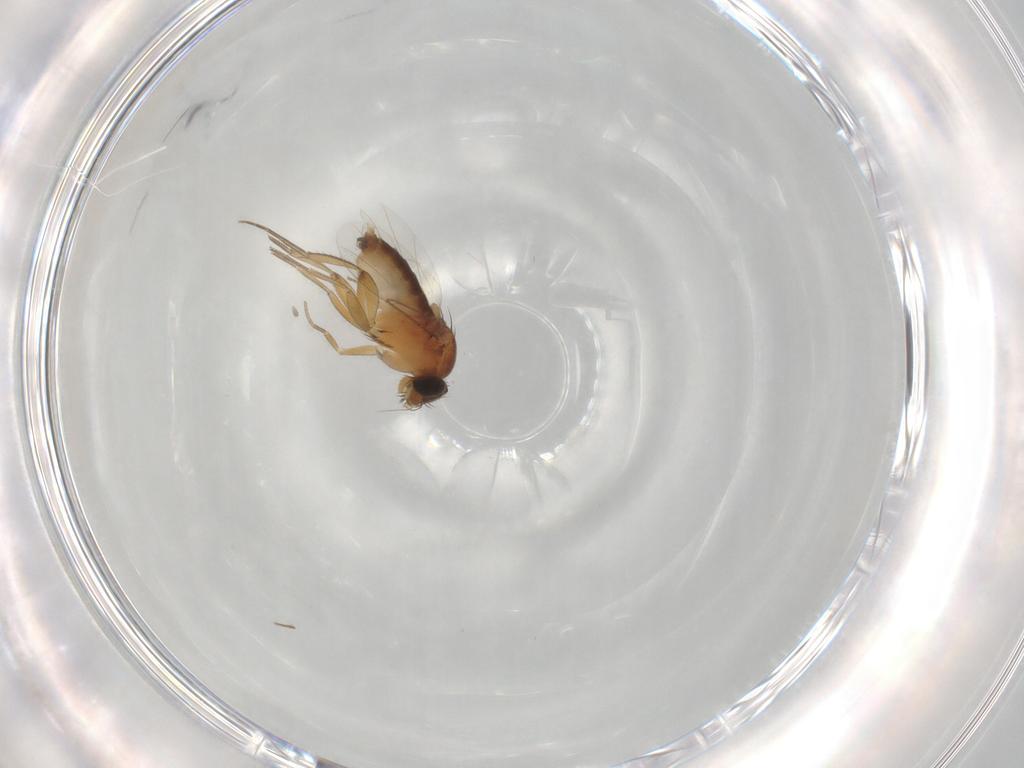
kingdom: Animalia
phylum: Arthropoda
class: Insecta
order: Diptera
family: Phoridae
